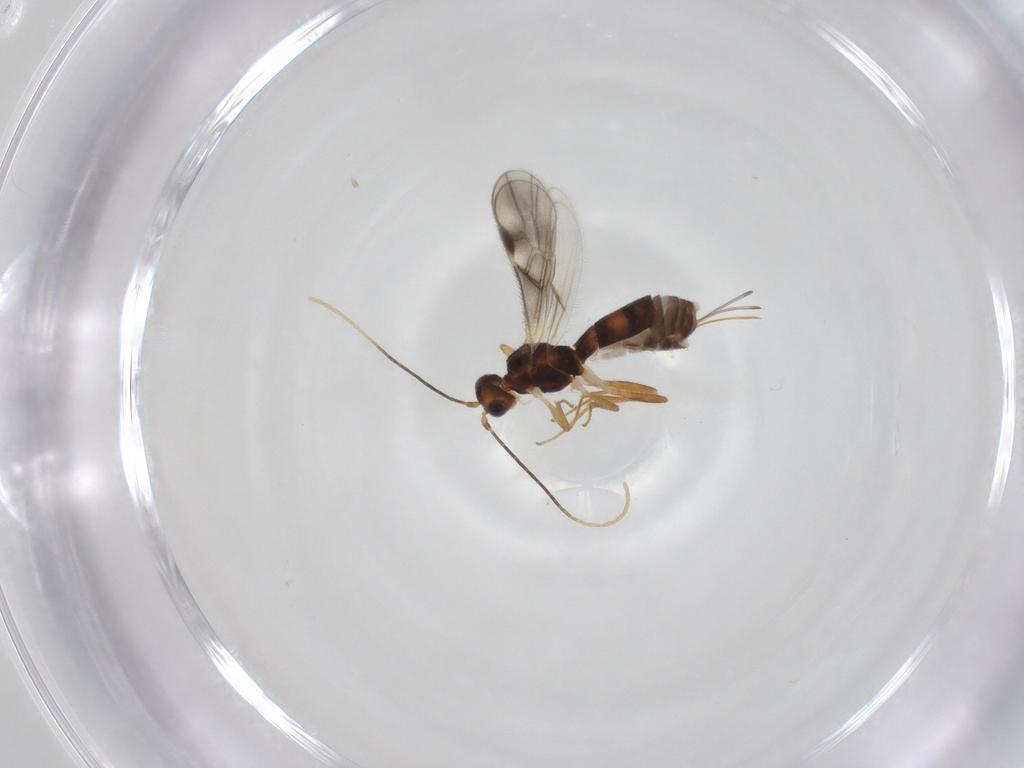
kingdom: Animalia
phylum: Arthropoda
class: Insecta
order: Hymenoptera
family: Braconidae
